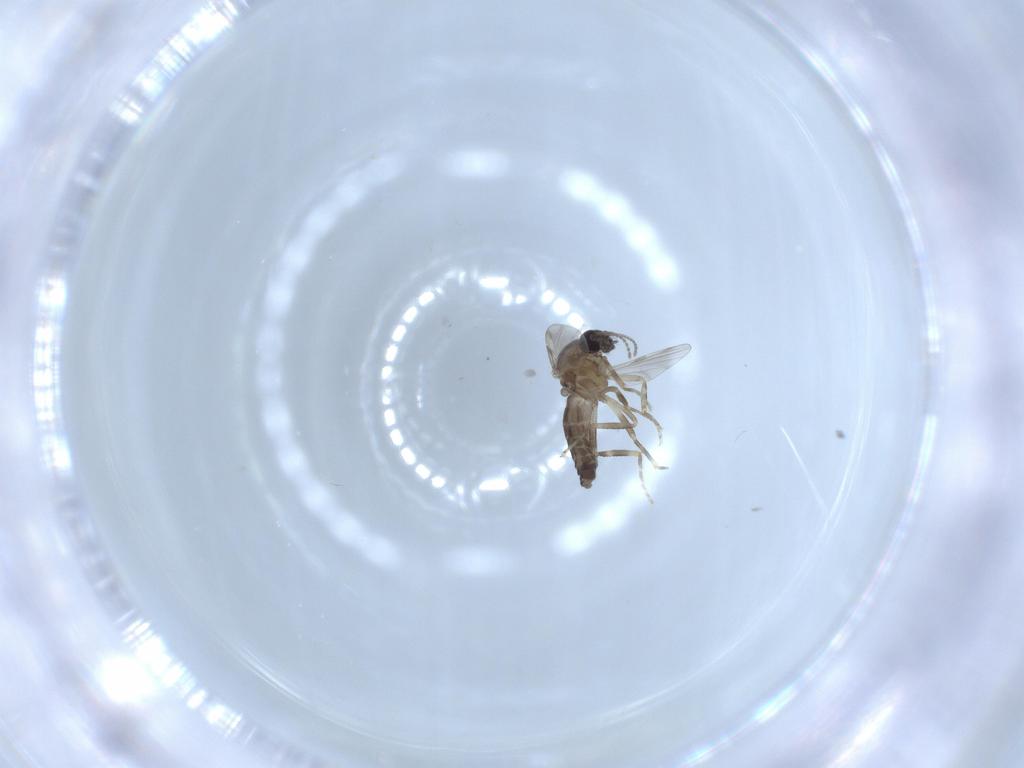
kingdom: Animalia
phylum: Arthropoda
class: Insecta
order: Diptera
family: Ceratopogonidae
